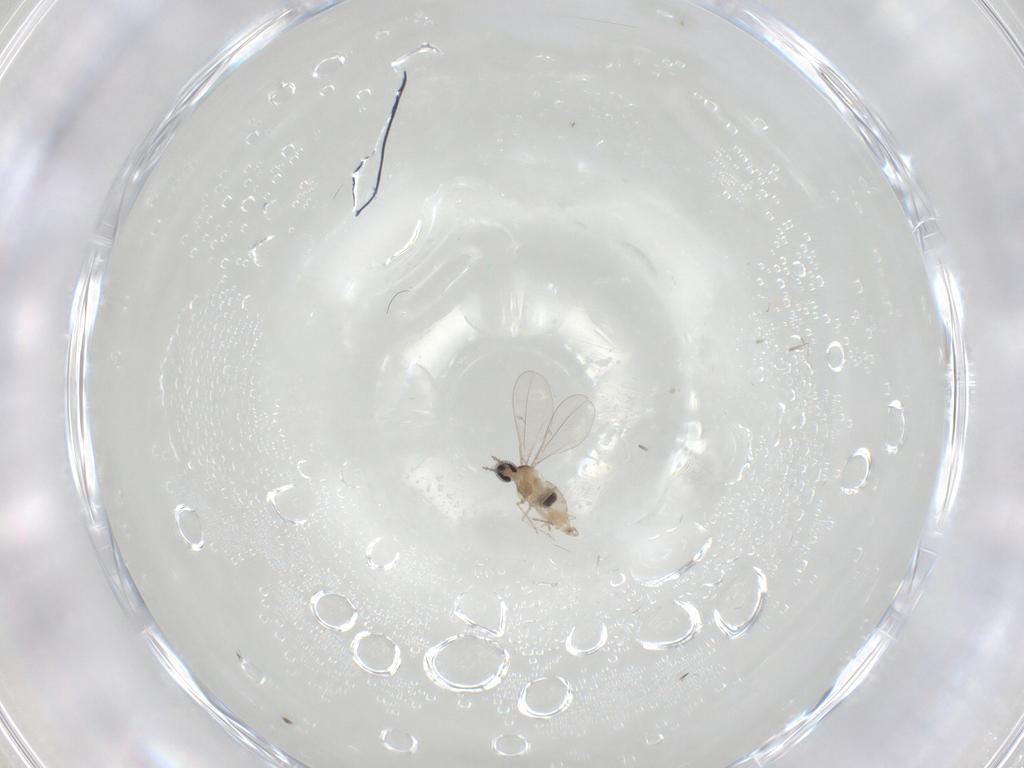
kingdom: Animalia
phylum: Arthropoda
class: Insecta
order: Diptera
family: Cecidomyiidae
